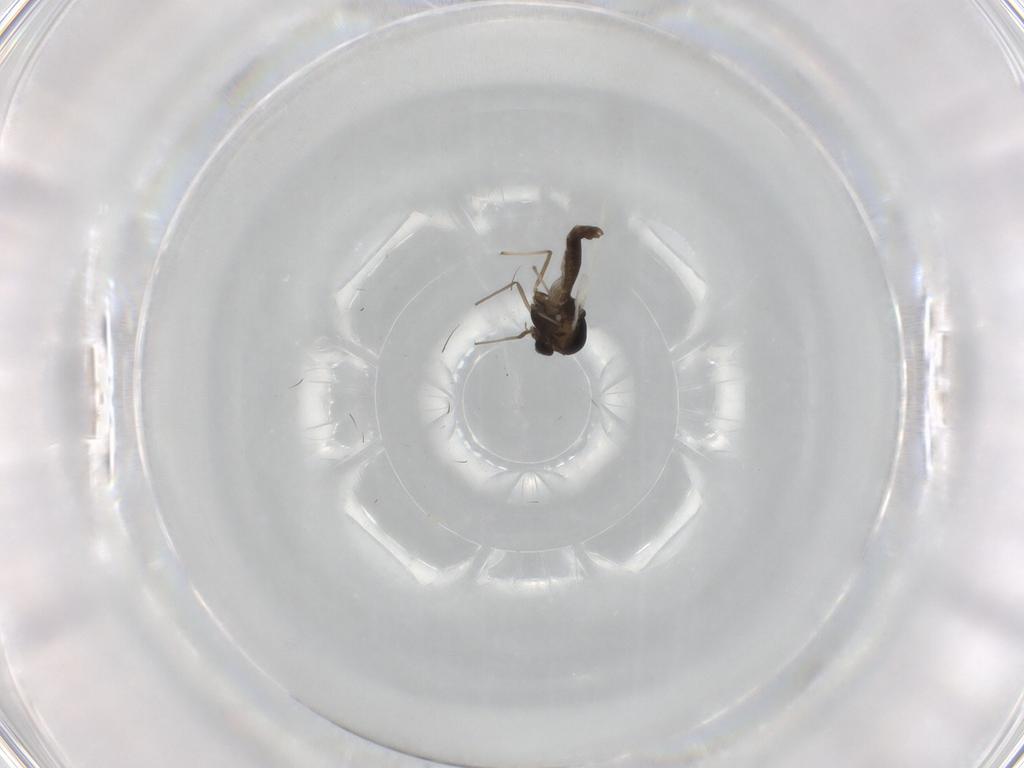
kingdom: Animalia
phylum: Arthropoda
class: Insecta
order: Diptera
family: Chironomidae
